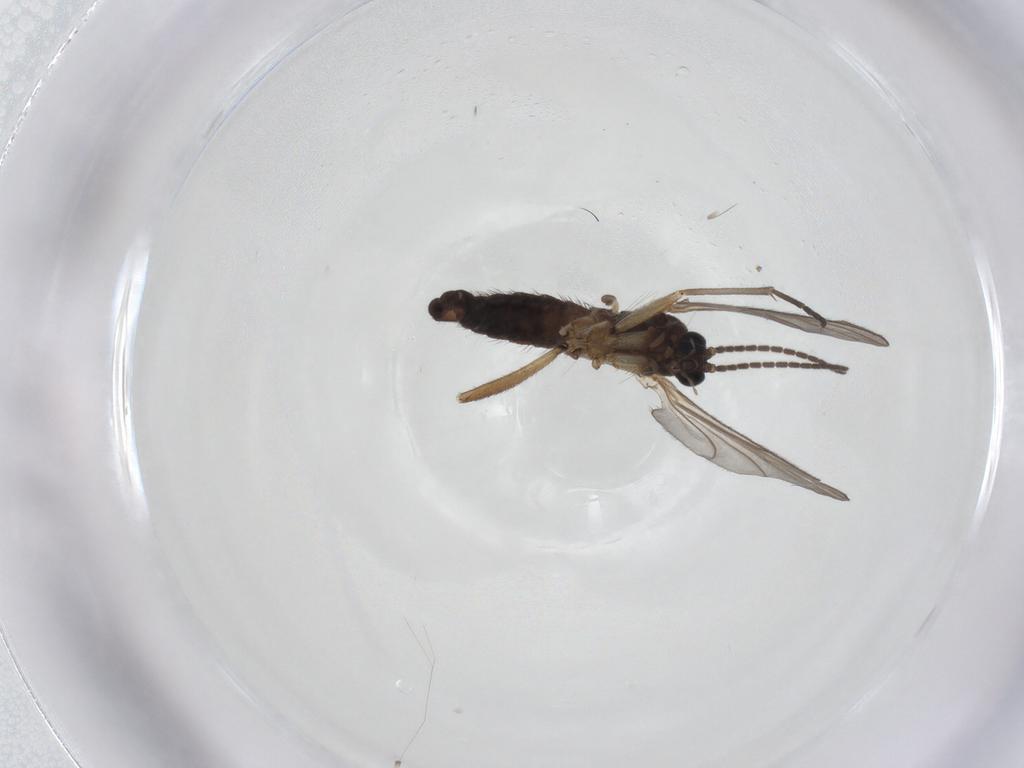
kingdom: Animalia
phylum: Arthropoda
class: Insecta
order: Diptera
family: Sciaridae
